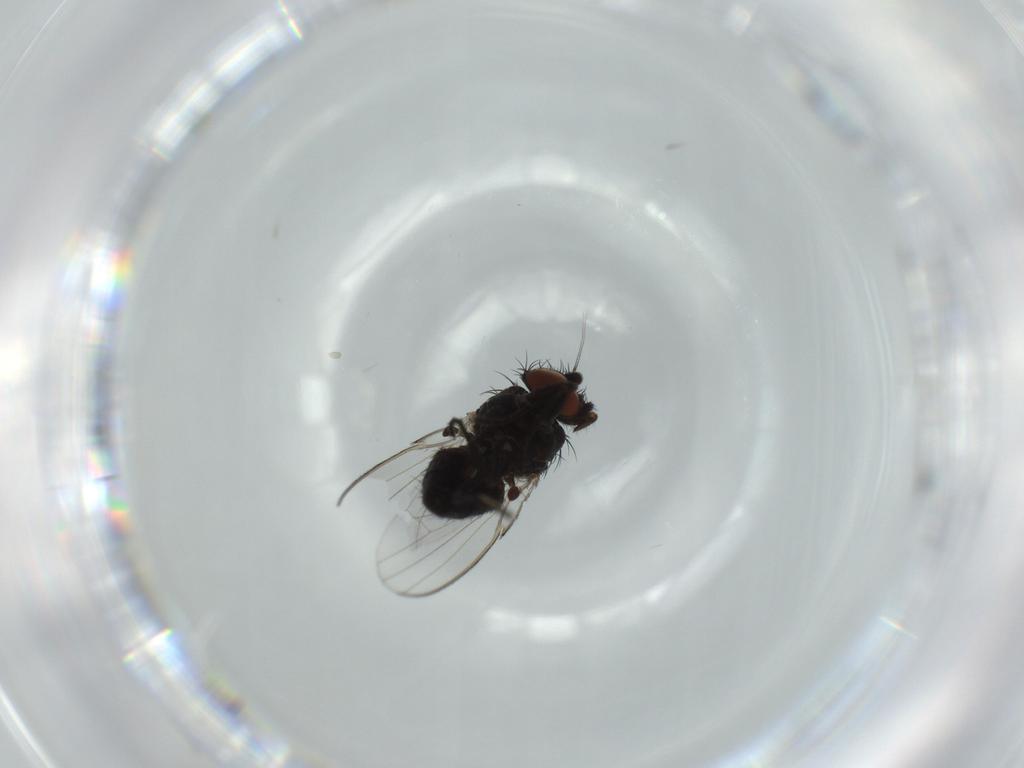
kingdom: Animalia
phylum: Arthropoda
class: Insecta
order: Diptera
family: Milichiidae
